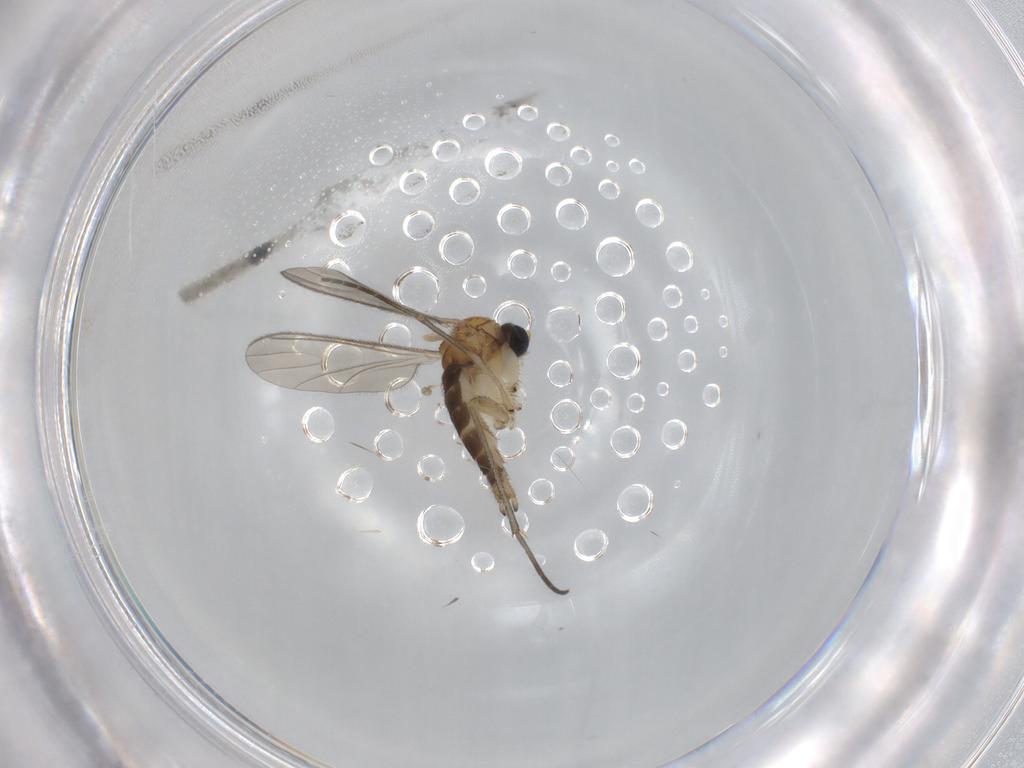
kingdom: Animalia
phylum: Arthropoda
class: Insecta
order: Diptera
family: Sciaridae
